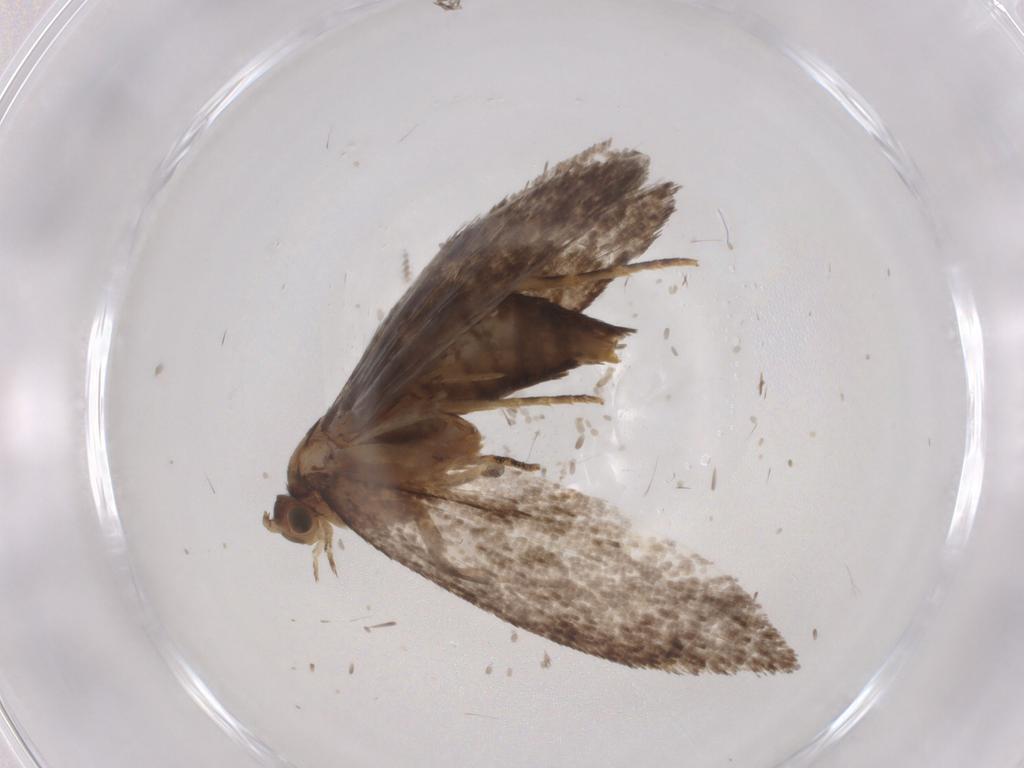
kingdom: Animalia
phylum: Arthropoda
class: Insecta
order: Lepidoptera
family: Tineidae
